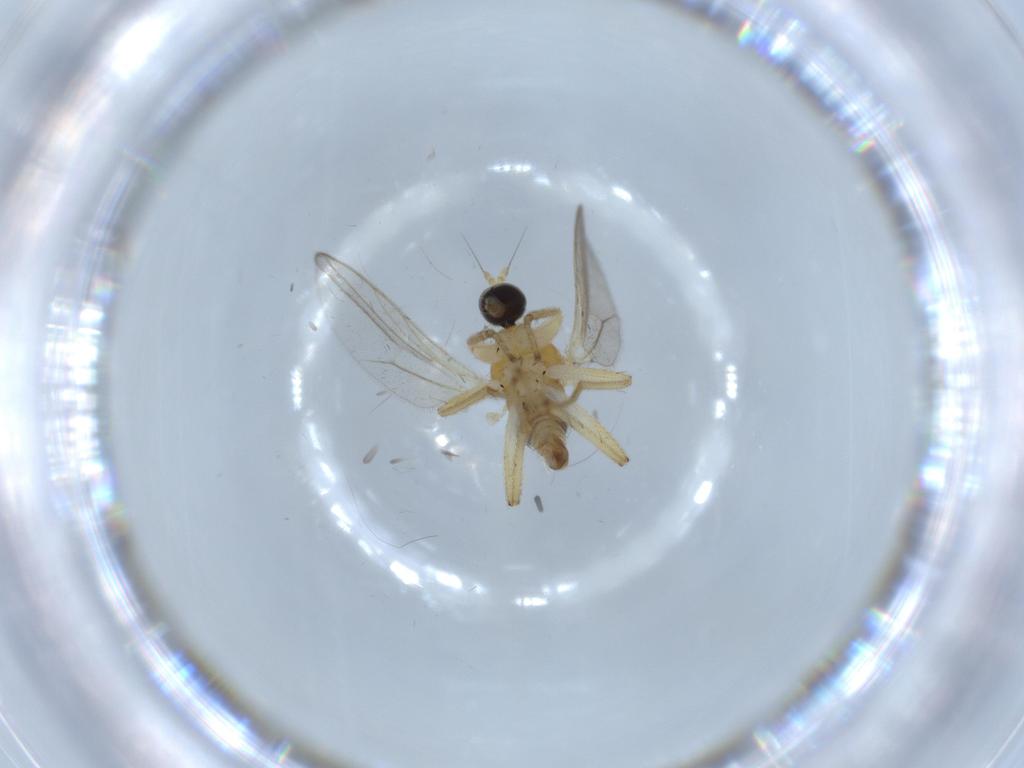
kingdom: Animalia
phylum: Arthropoda
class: Insecta
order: Diptera
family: Hybotidae
